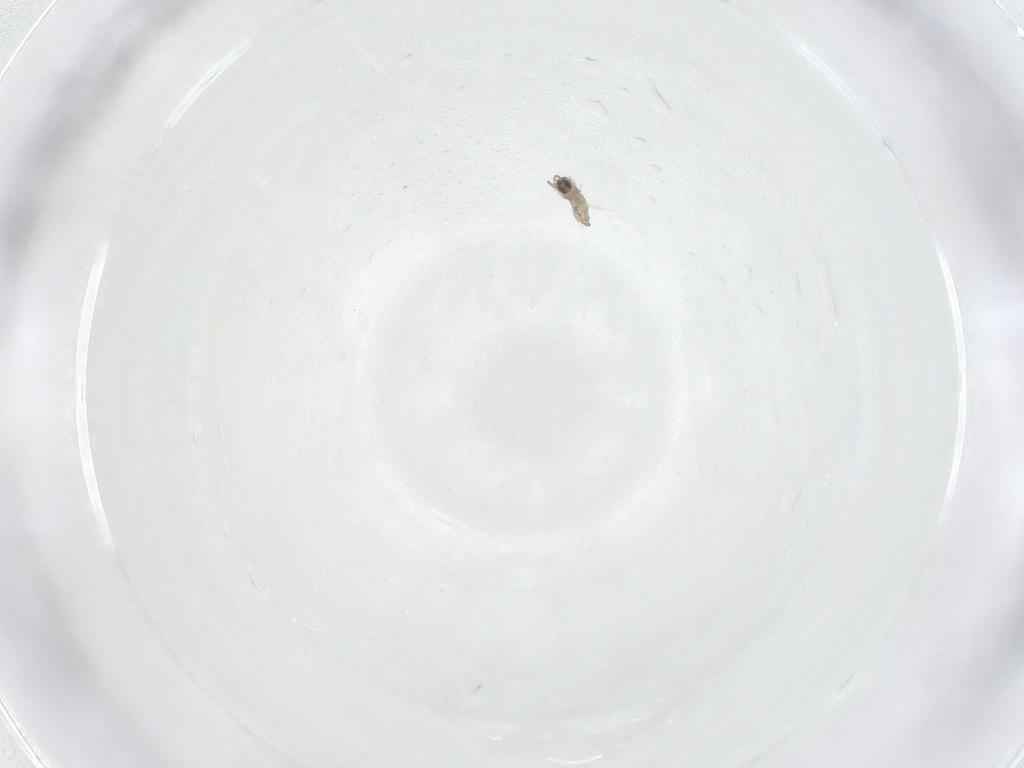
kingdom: Animalia
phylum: Arthropoda
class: Insecta
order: Diptera
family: Cecidomyiidae
